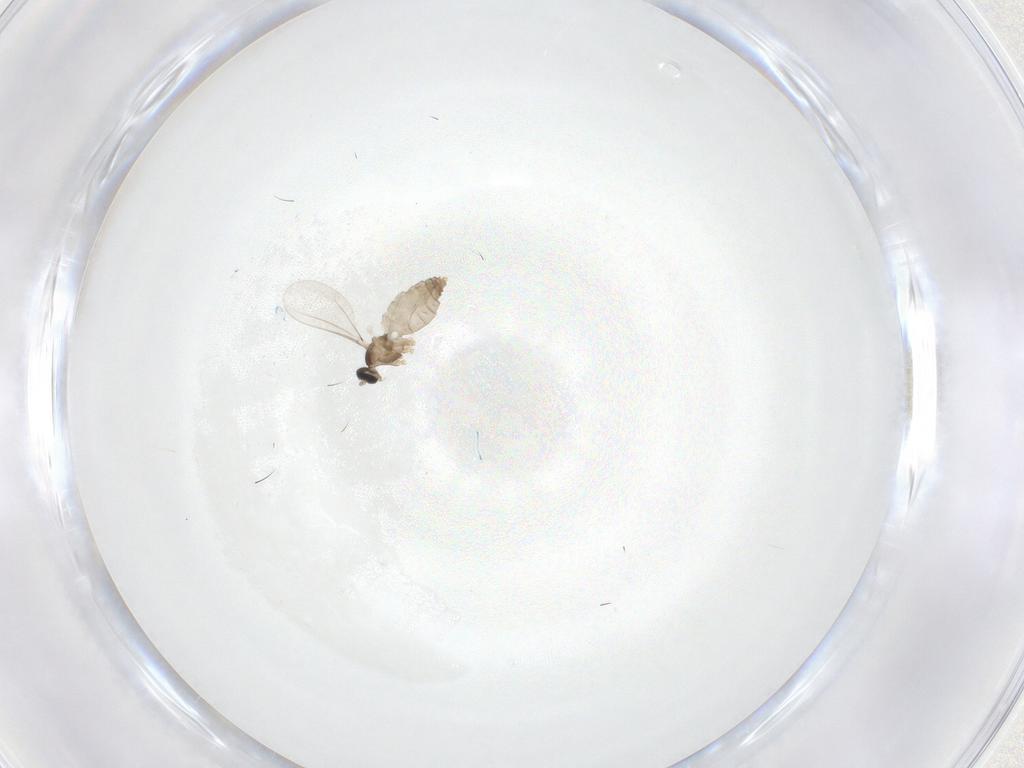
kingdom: Animalia
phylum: Arthropoda
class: Insecta
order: Diptera
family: Cecidomyiidae
